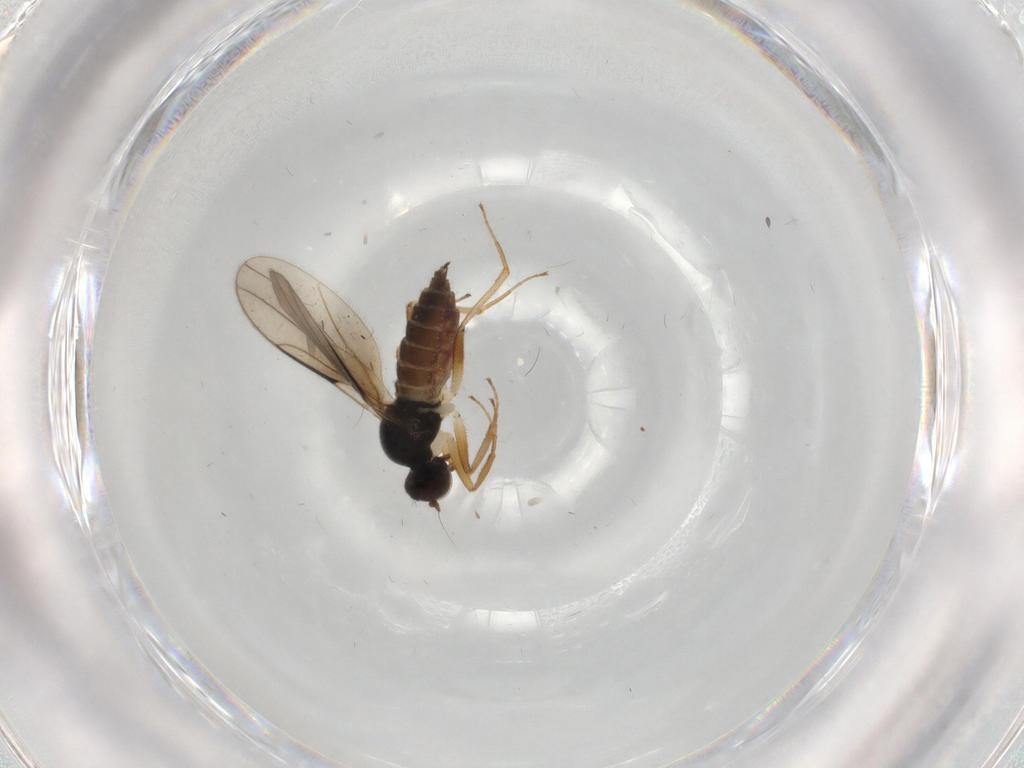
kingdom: Animalia
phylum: Arthropoda
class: Insecta
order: Diptera
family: Hybotidae
